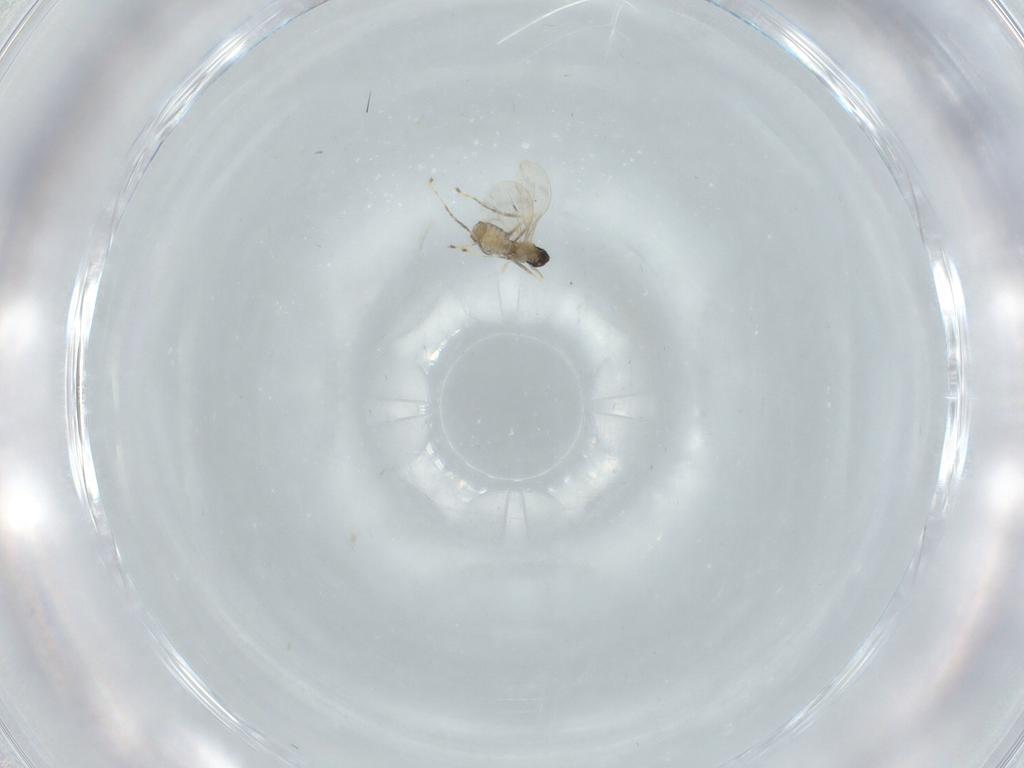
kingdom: Animalia
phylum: Arthropoda
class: Insecta
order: Diptera
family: Cecidomyiidae
